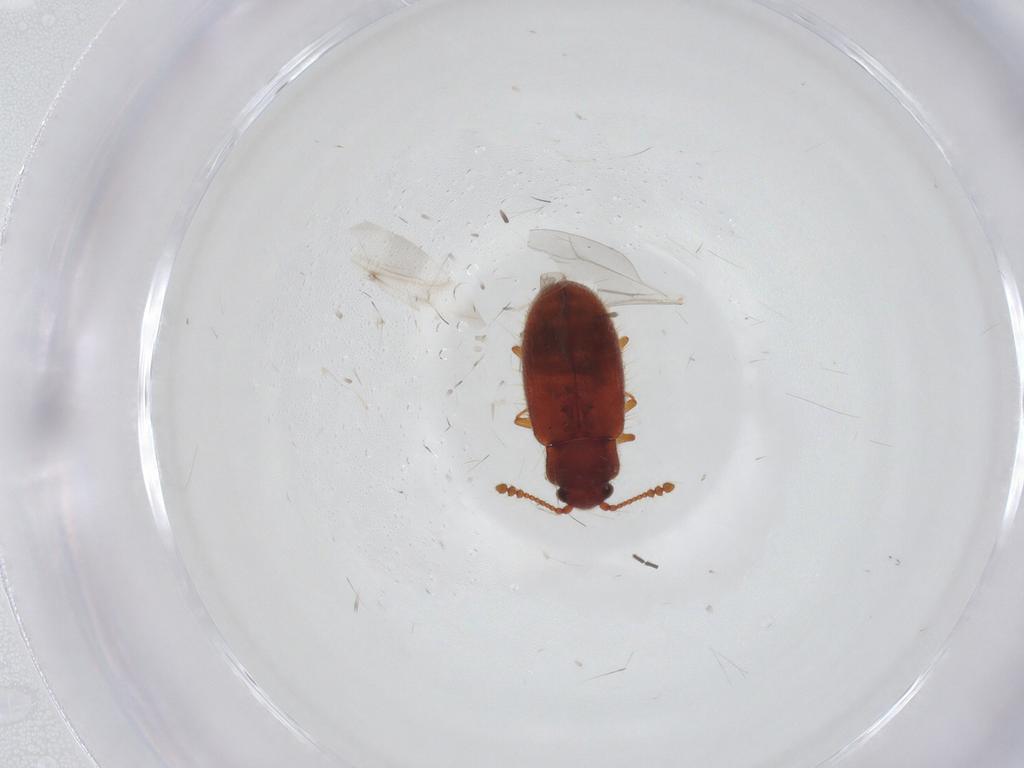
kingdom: Animalia
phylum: Arthropoda
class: Insecta
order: Coleoptera
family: Cryptophagidae
